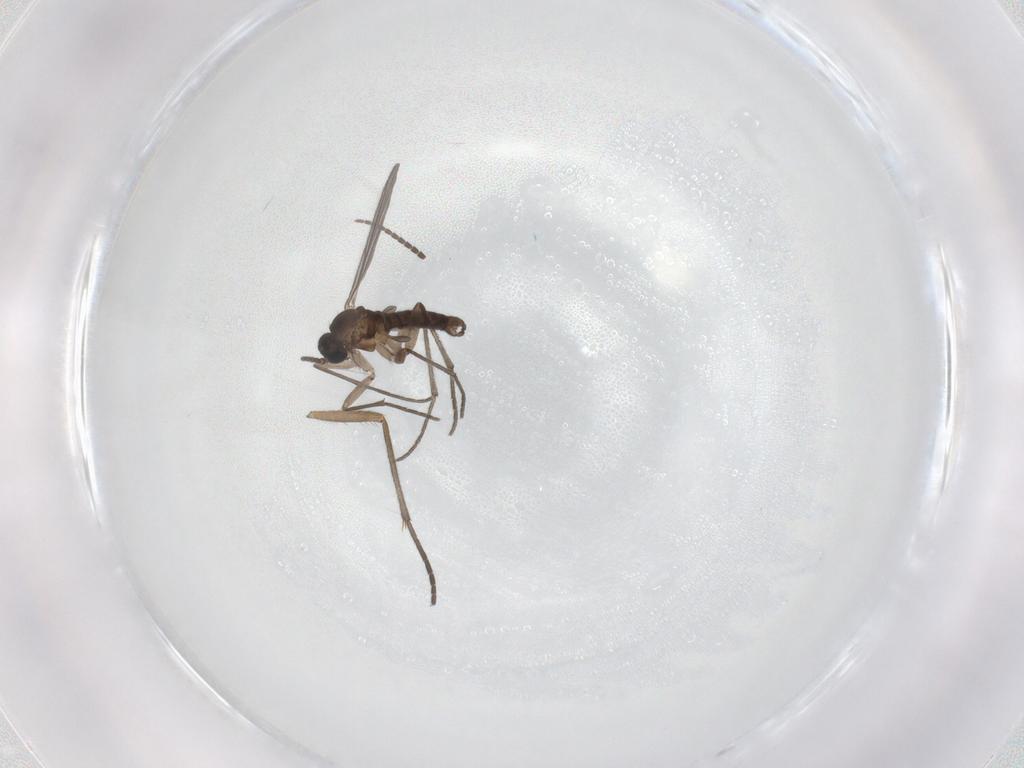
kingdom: Animalia
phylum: Arthropoda
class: Insecta
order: Diptera
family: Sciaridae
